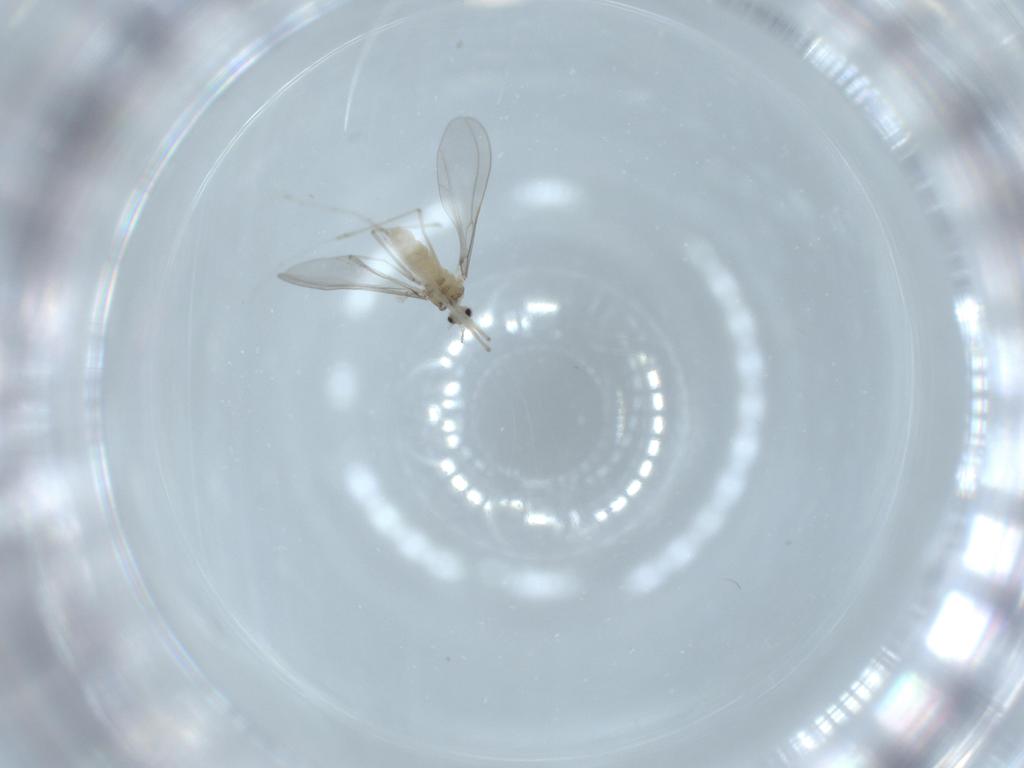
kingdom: Animalia
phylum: Arthropoda
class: Insecta
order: Diptera
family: Cecidomyiidae
